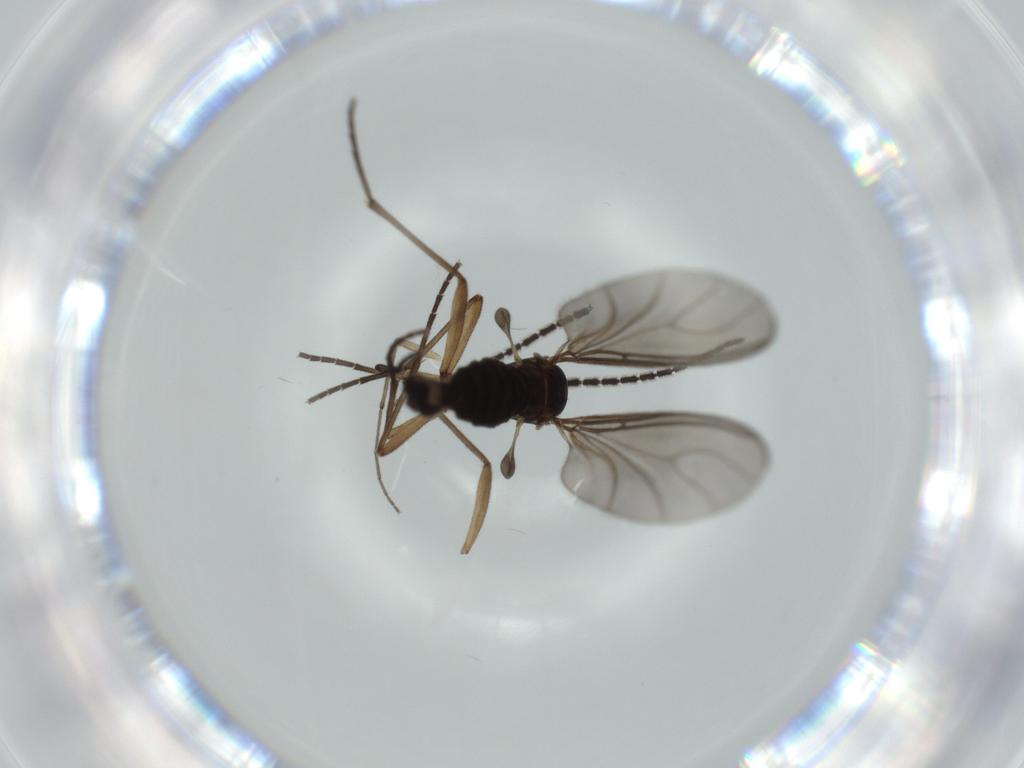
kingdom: Animalia
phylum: Arthropoda
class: Insecta
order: Diptera
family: Sciaridae
